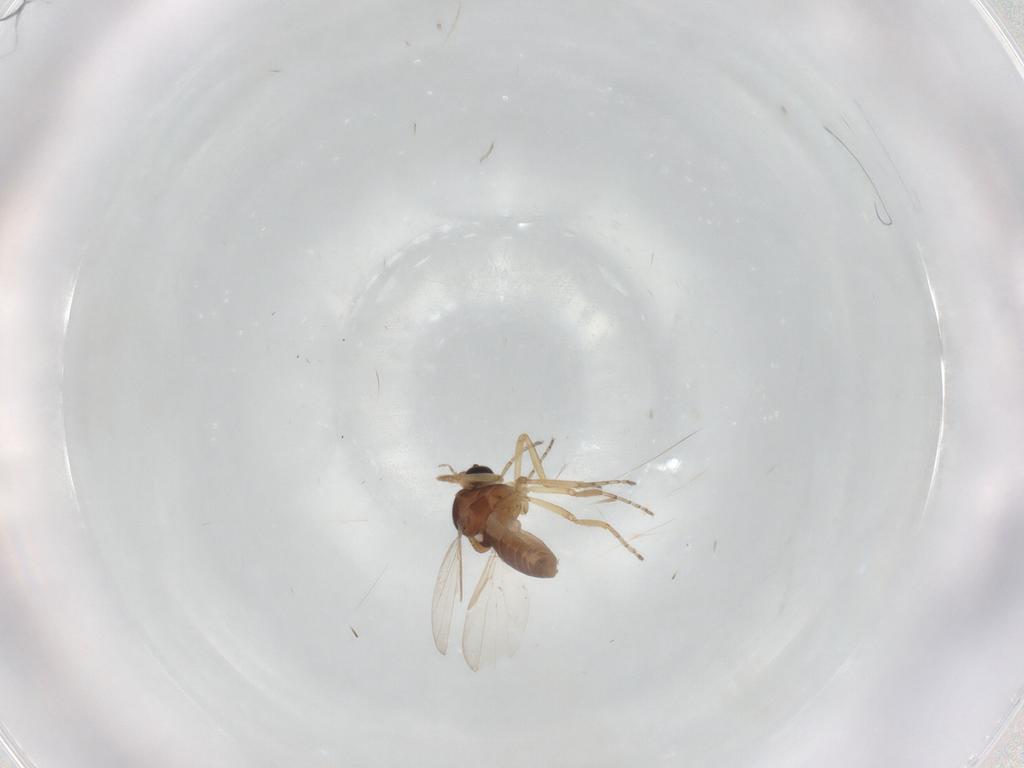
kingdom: Animalia
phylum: Arthropoda
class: Insecta
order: Diptera
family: Ceratopogonidae
